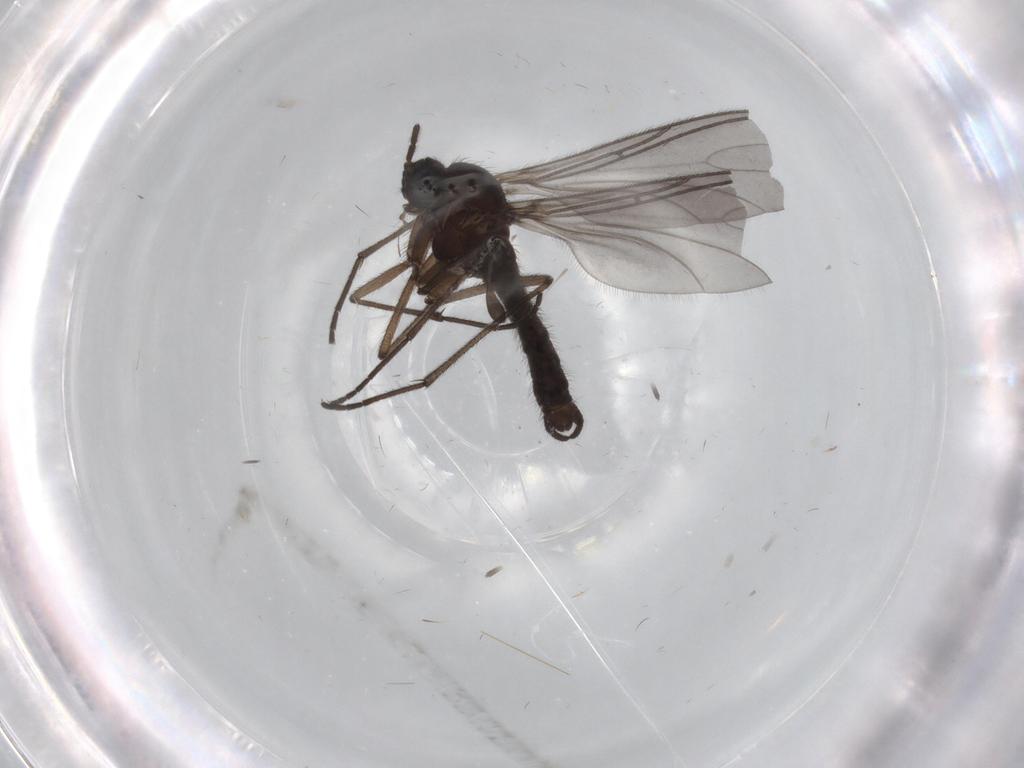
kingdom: Animalia
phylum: Arthropoda
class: Insecta
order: Diptera
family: Sciaridae
